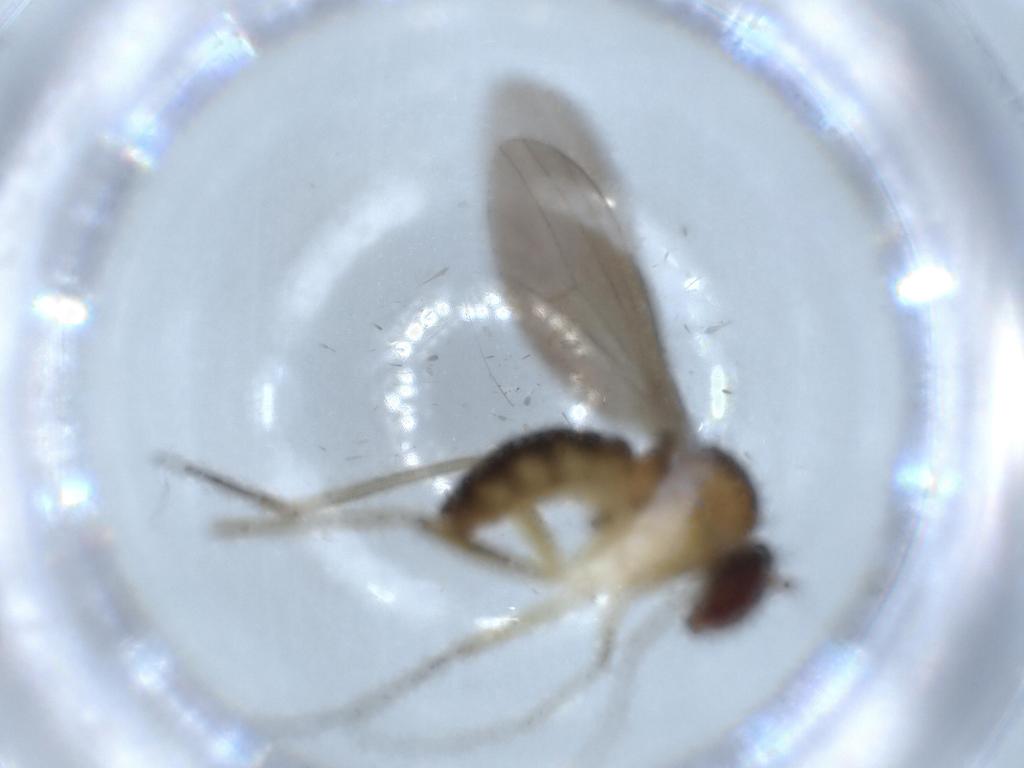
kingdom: Animalia
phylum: Arthropoda
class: Insecta
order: Diptera
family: Dolichopodidae
